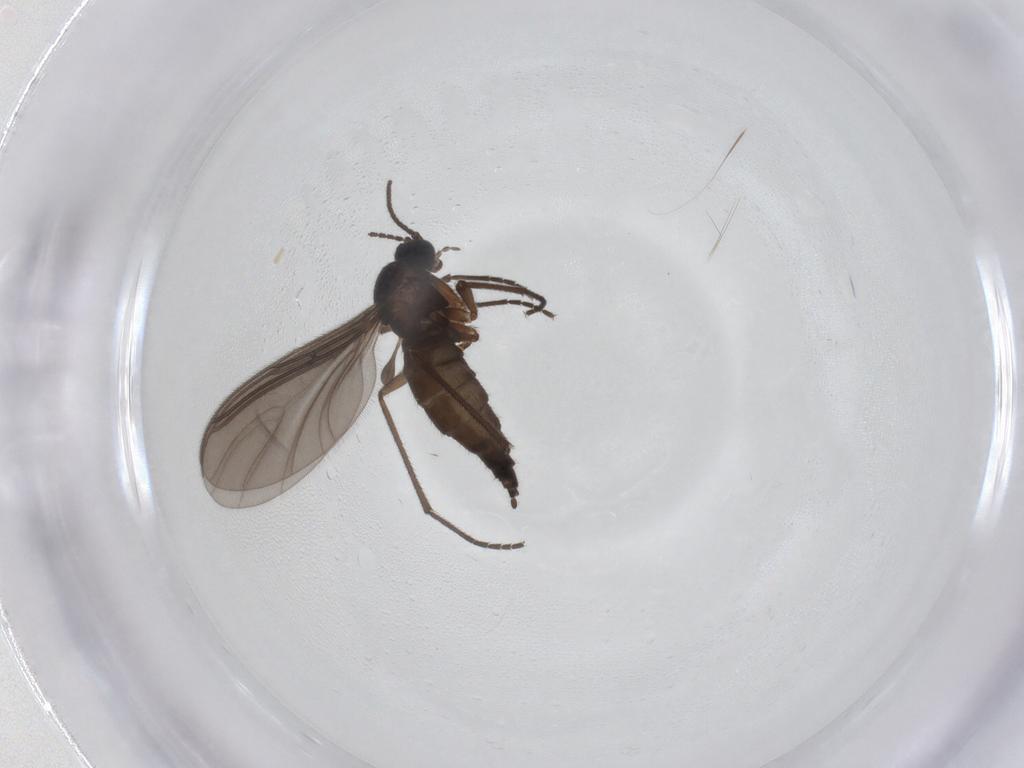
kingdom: Animalia
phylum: Arthropoda
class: Insecta
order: Diptera
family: Sciaridae
